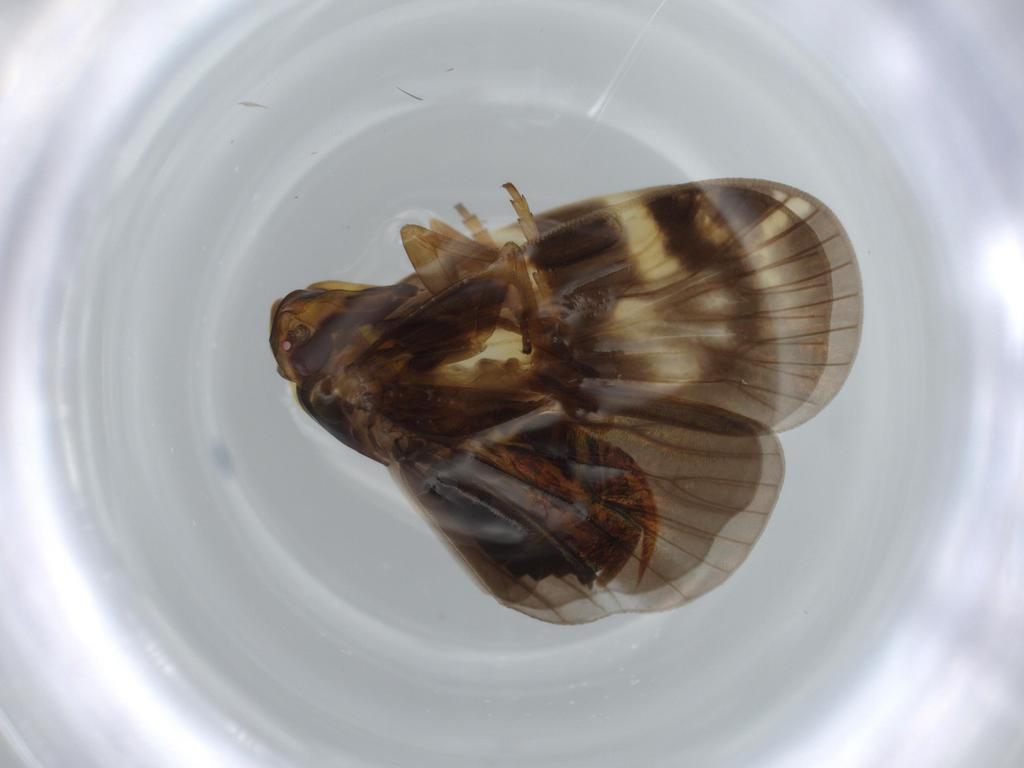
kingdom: Animalia
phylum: Arthropoda
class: Insecta
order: Hemiptera
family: Cixiidae
